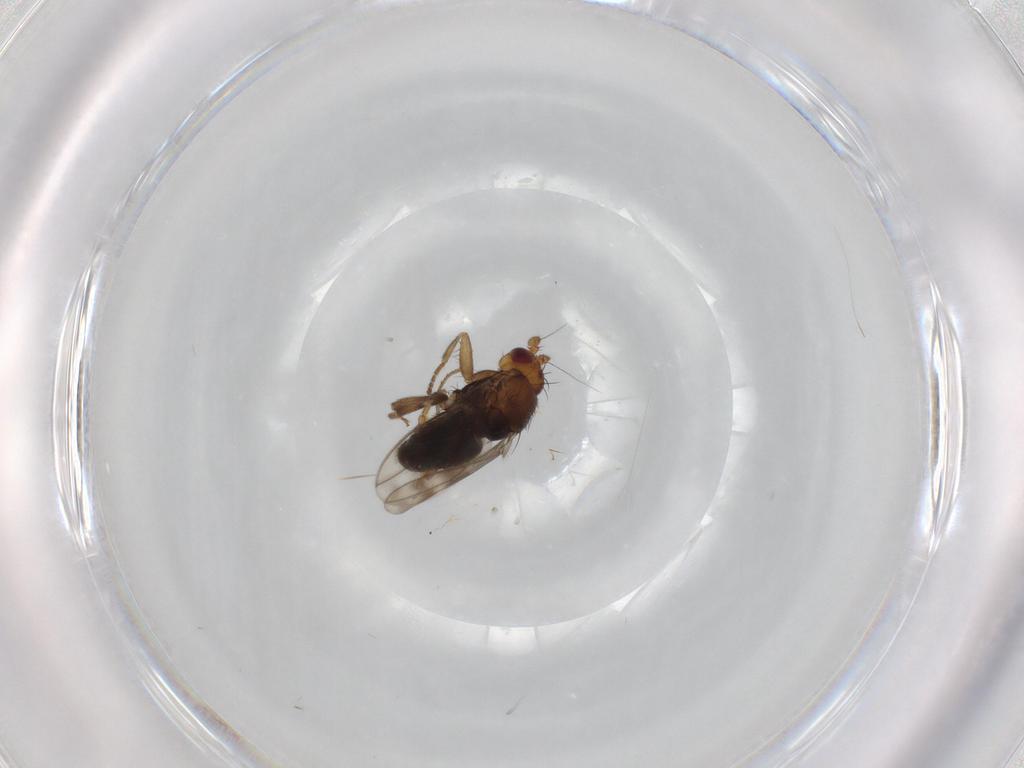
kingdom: Animalia
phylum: Arthropoda
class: Insecta
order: Diptera
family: Sphaeroceridae
